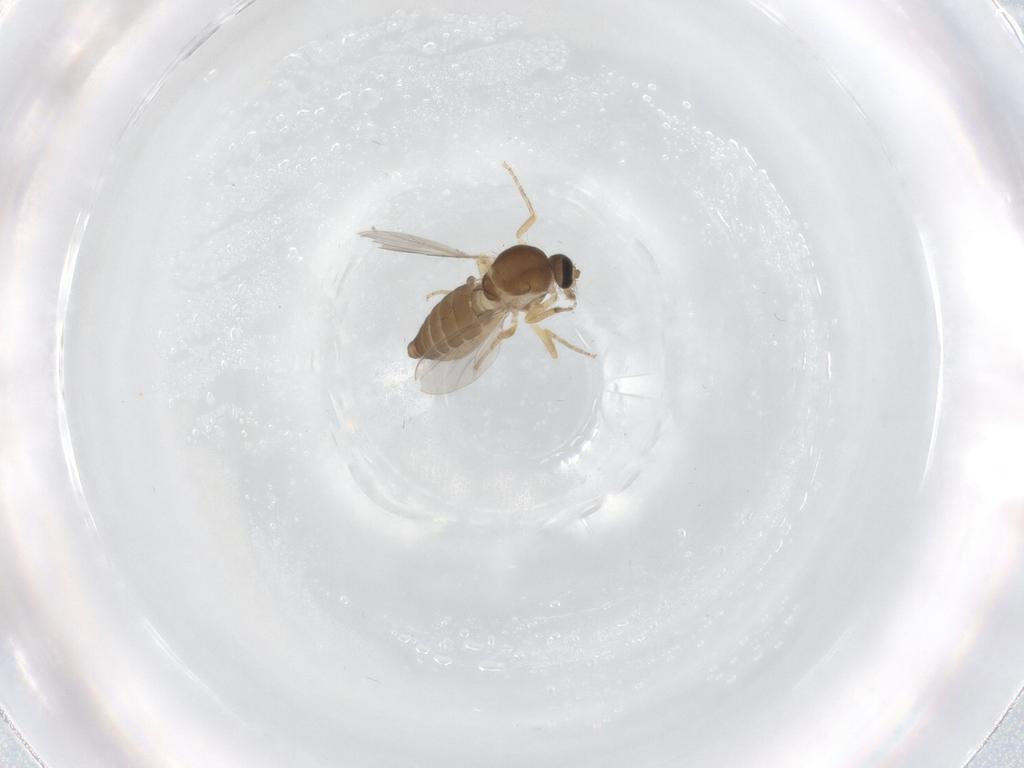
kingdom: Animalia
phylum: Arthropoda
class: Insecta
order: Diptera
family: Ceratopogonidae
